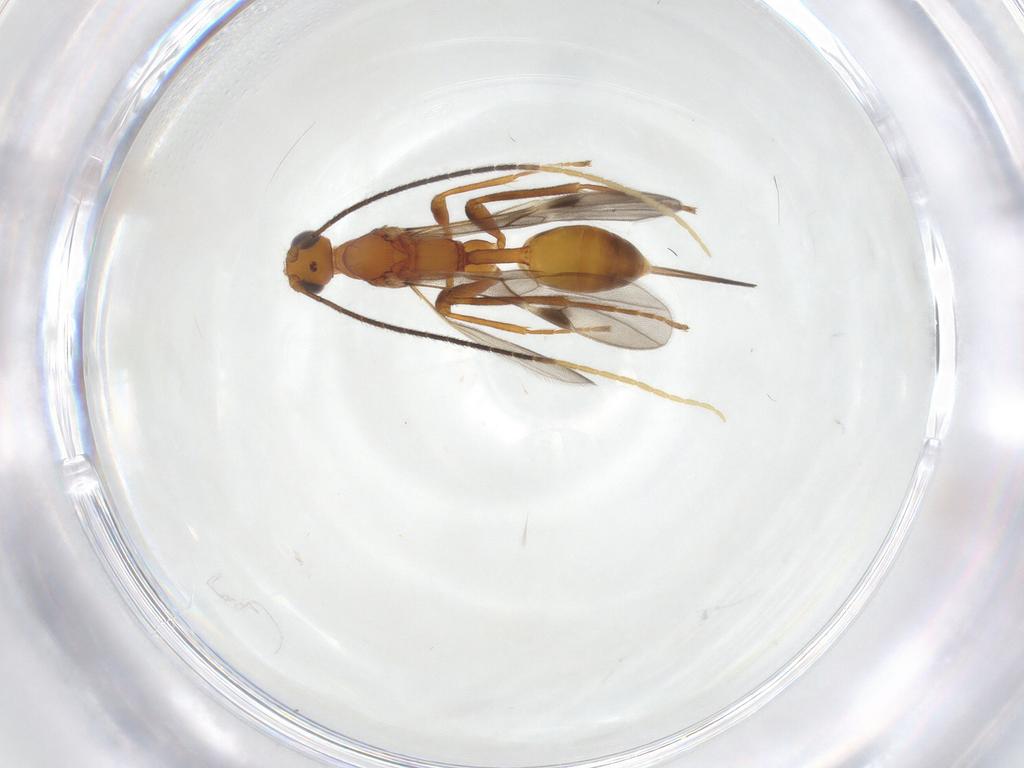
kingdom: Animalia
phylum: Arthropoda
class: Insecta
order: Hymenoptera
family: Braconidae
